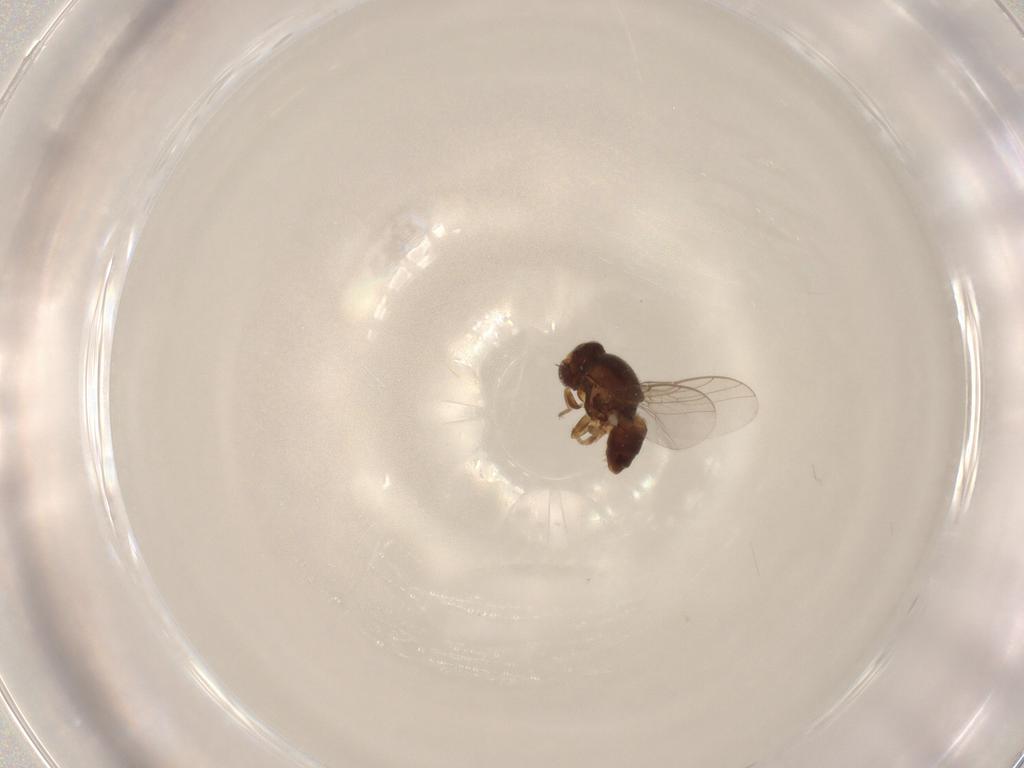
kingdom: Animalia
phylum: Arthropoda
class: Insecta
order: Diptera
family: Chloropidae
